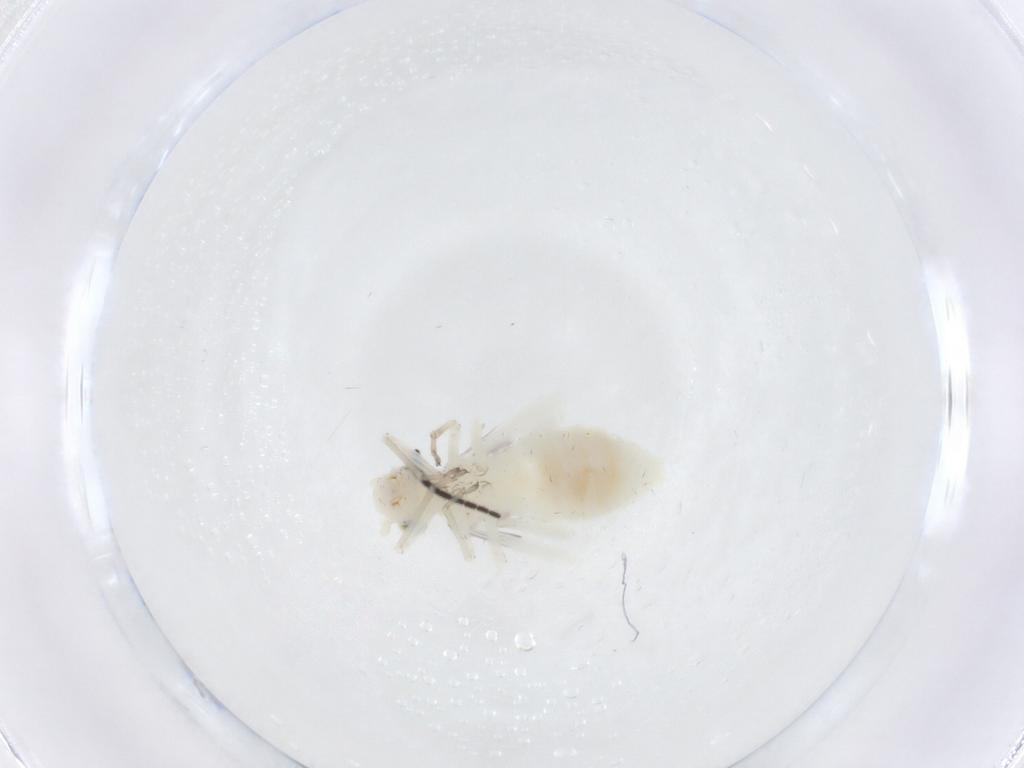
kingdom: Animalia
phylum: Arthropoda
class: Insecta
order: Psocodea
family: Caeciliusidae
